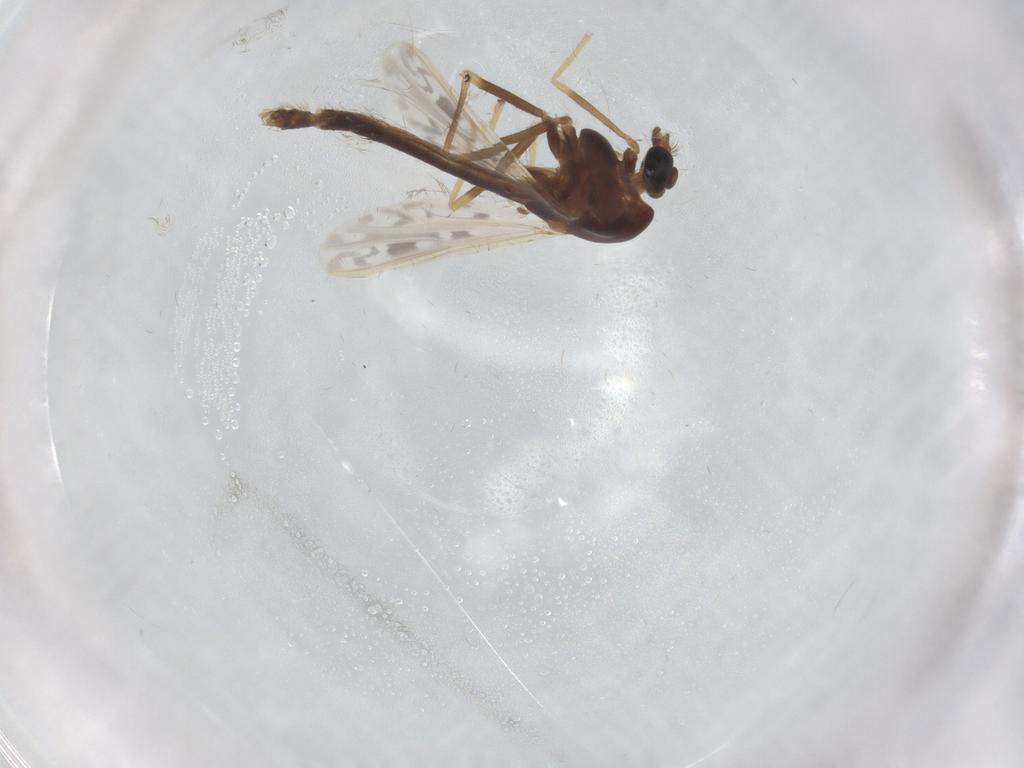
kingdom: Animalia
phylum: Arthropoda
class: Insecta
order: Diptera
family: Chironomidae
